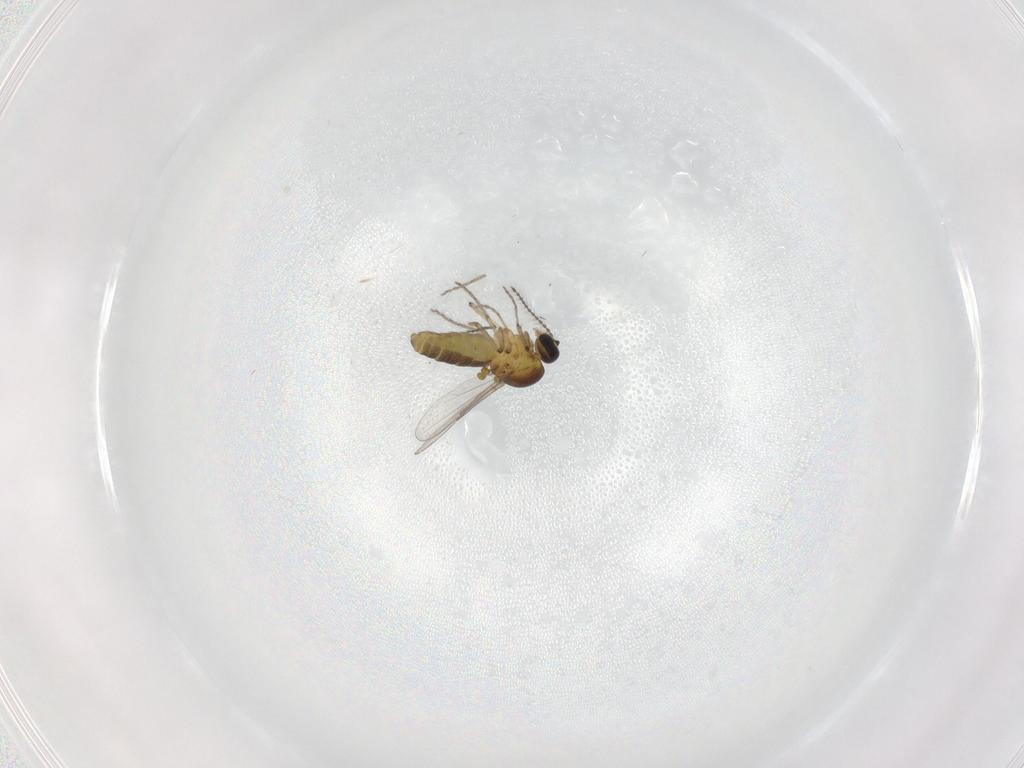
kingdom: Animalia
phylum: Arthropoda
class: Insecta
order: Diptera
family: Ceratopogonidae
